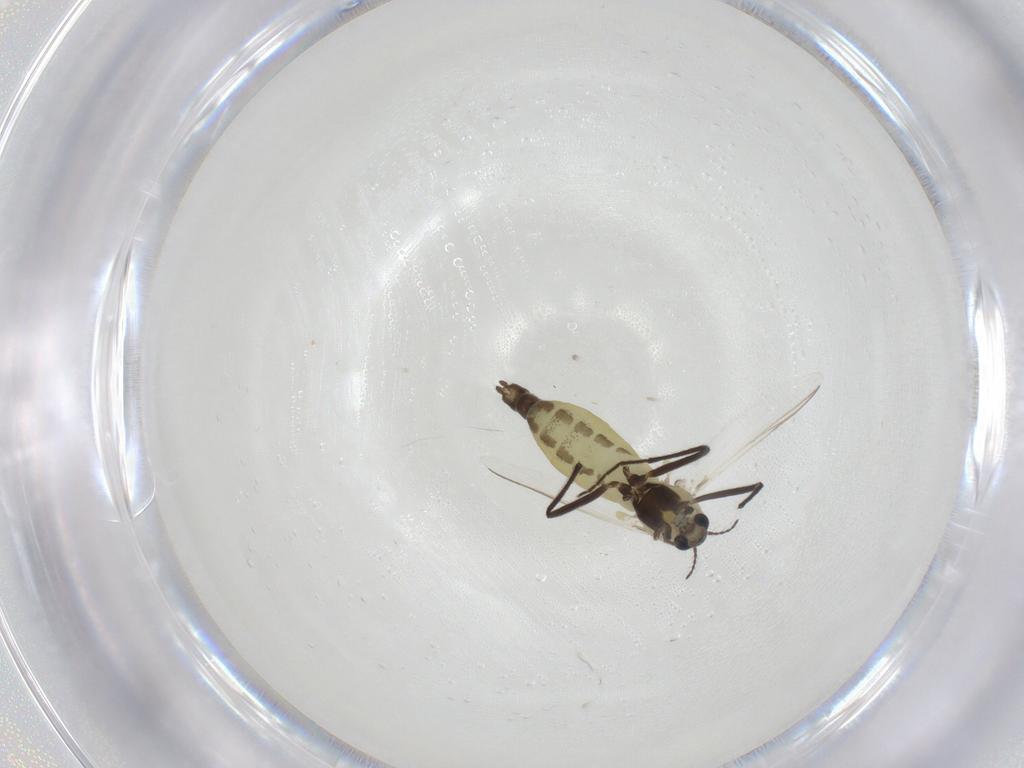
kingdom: Animalia
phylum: Arthropoda
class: Insecta
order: Diptera
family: Chironomidae
